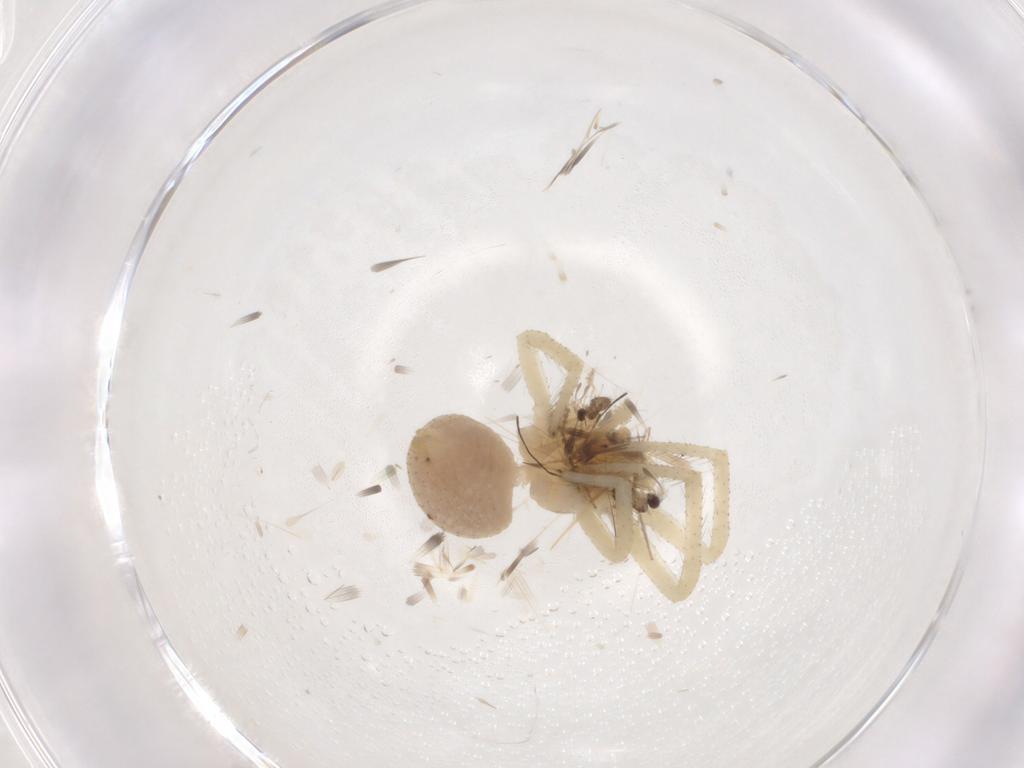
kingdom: Animalia
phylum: Arthropoda
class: Arachnida
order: Araneae
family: Thomisidae
